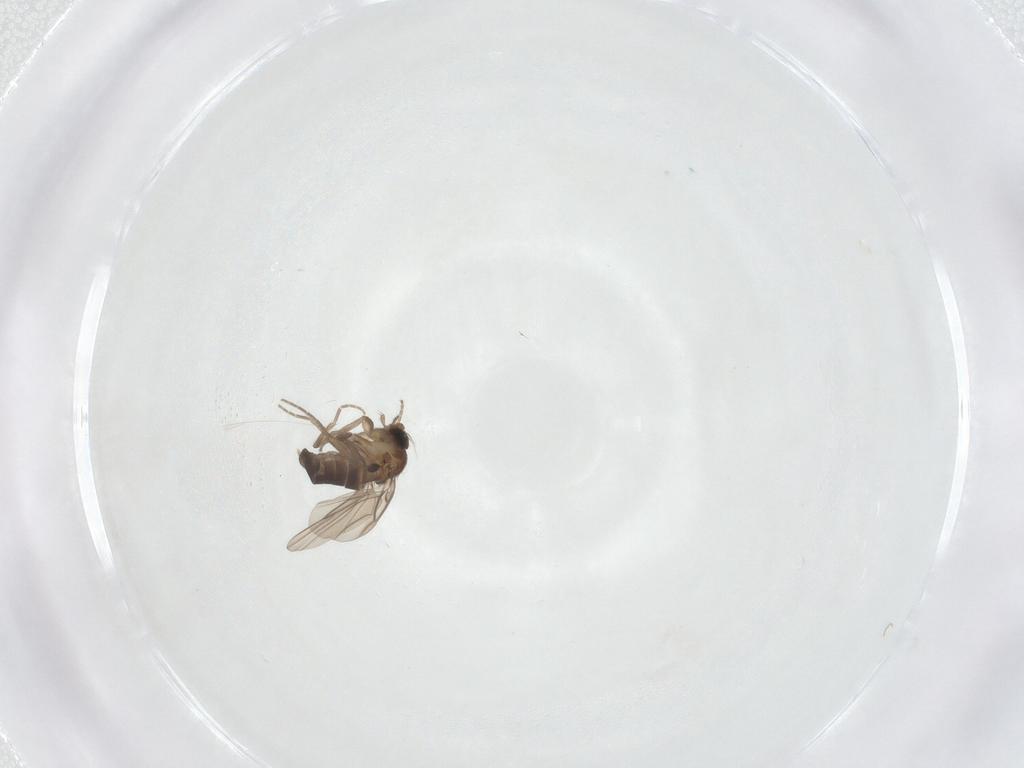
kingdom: Animalia
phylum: Arthropoda
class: Insecta
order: Diptera
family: Phoridae
